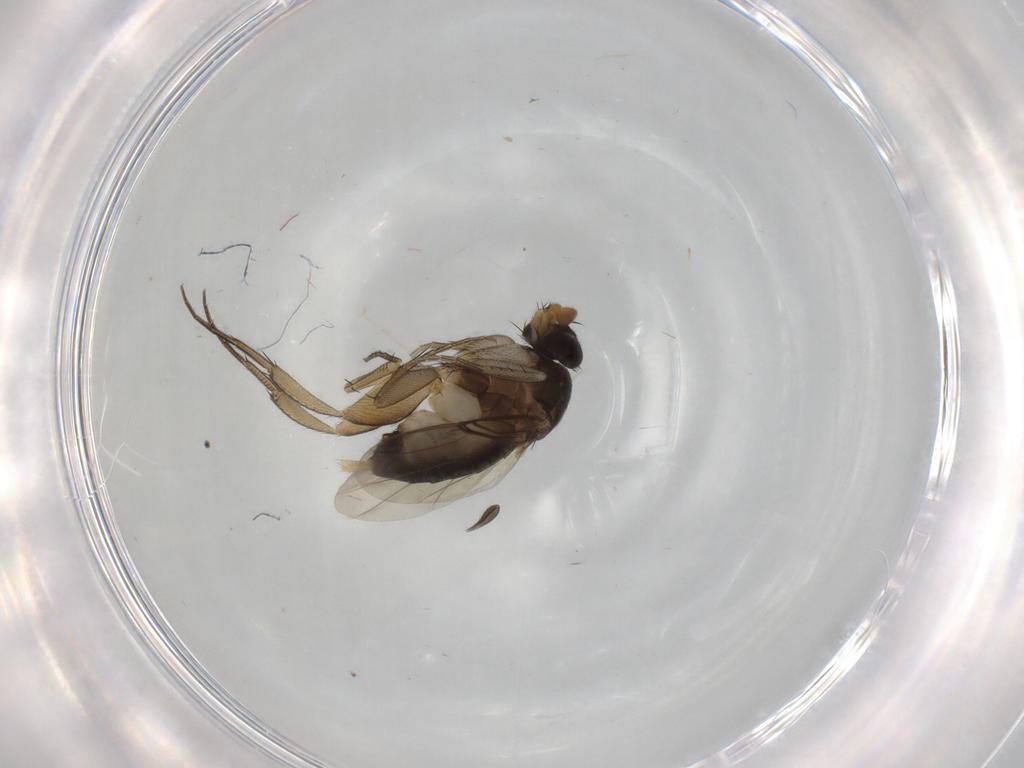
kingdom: Animalia
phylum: Arthropoda
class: Insecta
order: Diptera
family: Phoridae
